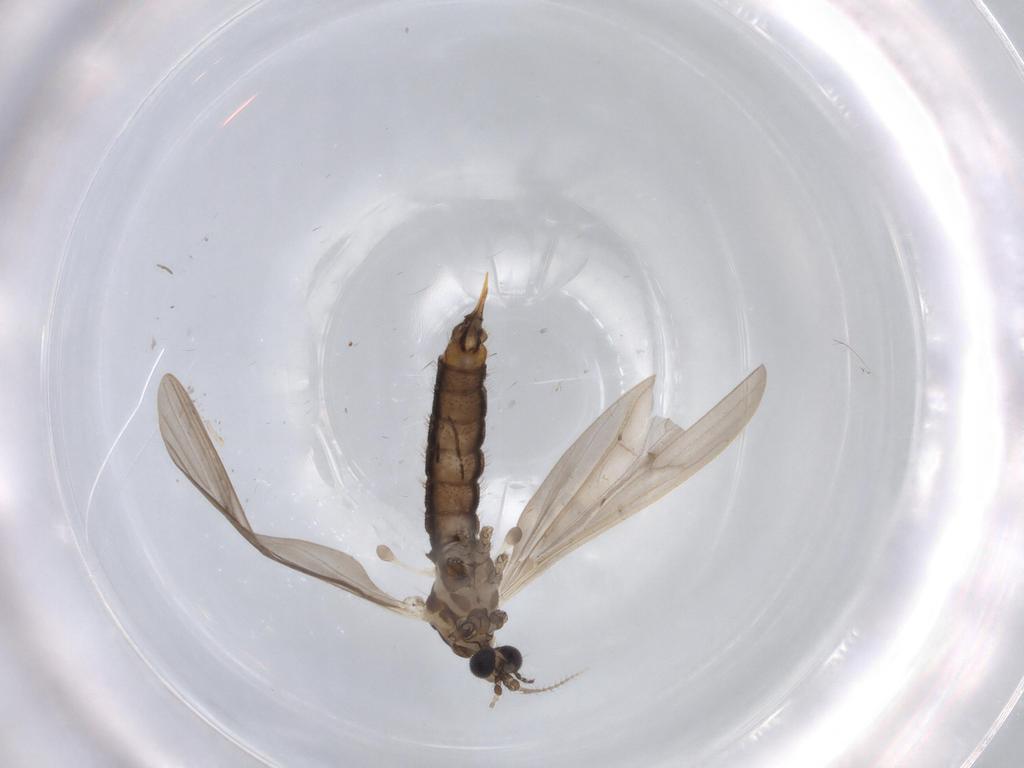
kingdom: Animalia
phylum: Arthropoda
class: Insecta
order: Diptera
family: Limoniidae
